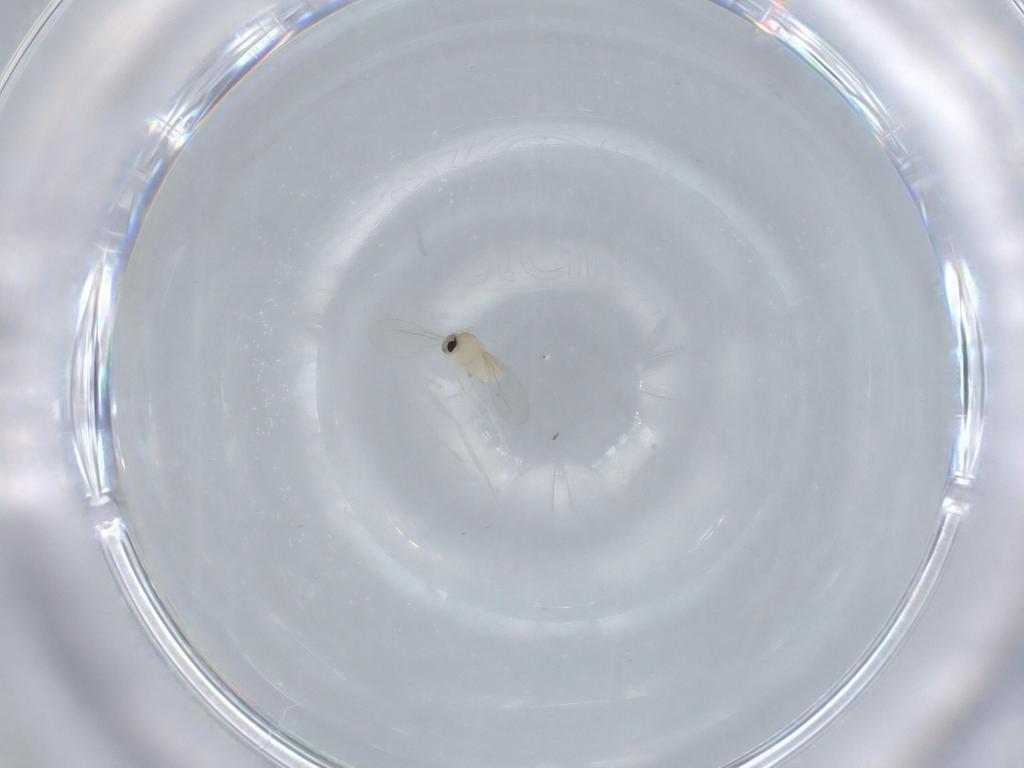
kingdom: Animalia
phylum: Arthropoda
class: Insecta
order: Diptera
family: Cecidomyiidae
